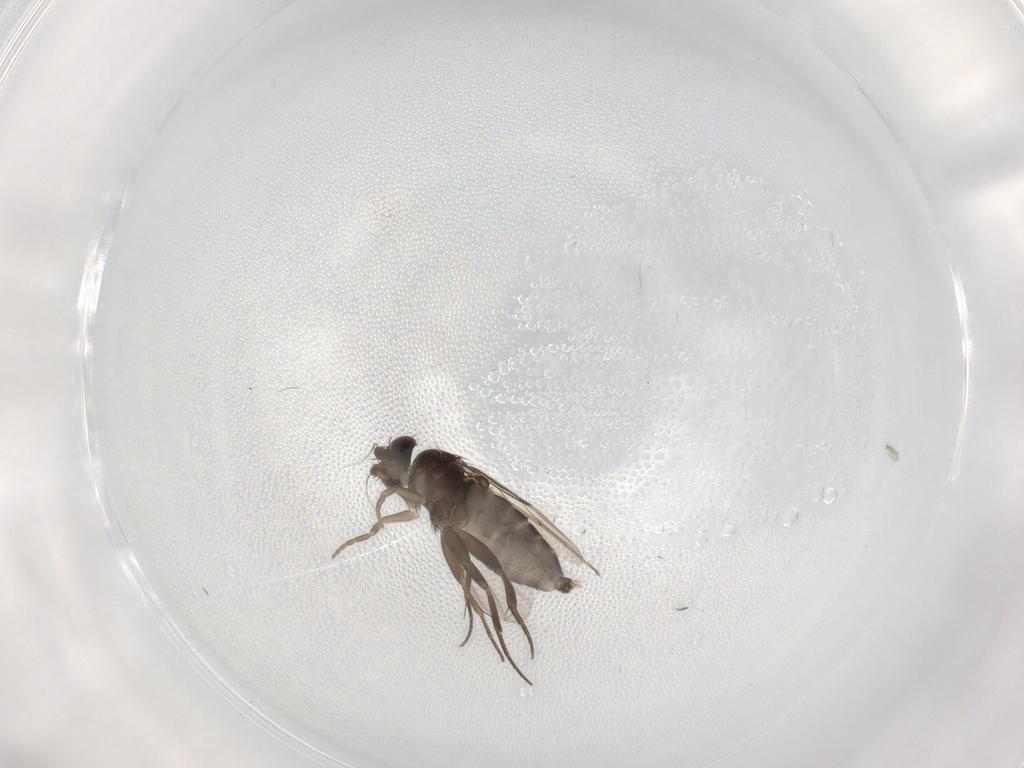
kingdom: Animalia
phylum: Arthropoda
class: Insecta
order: Diptera
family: Phoridae
